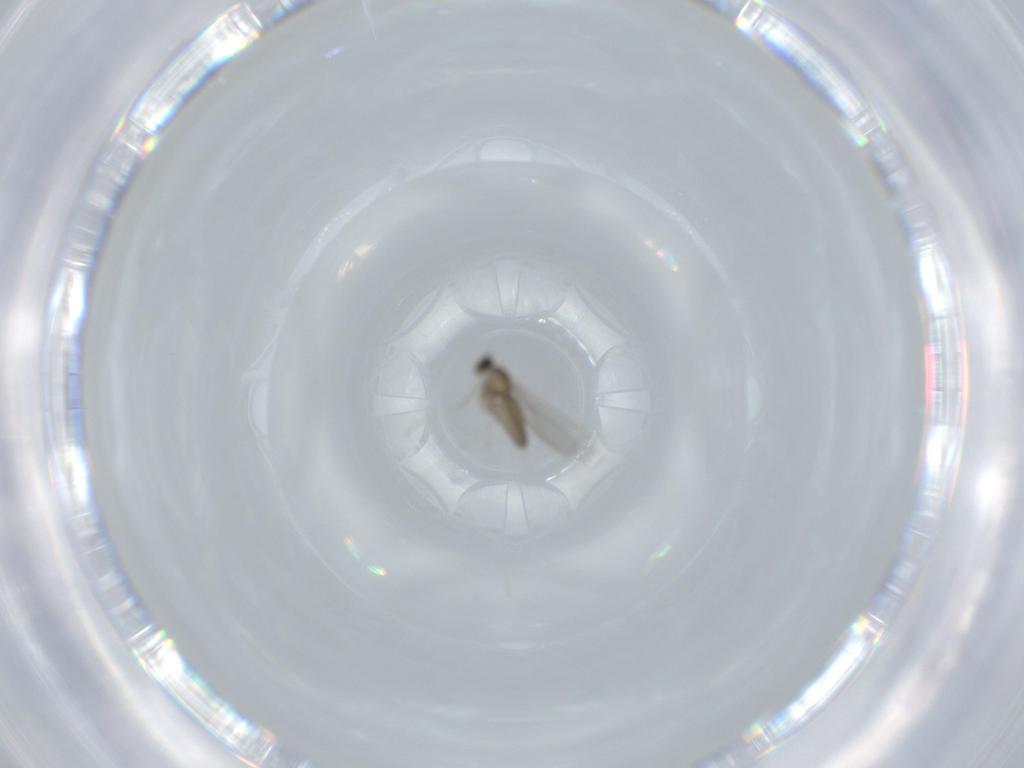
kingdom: Animalia
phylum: Arthropoda
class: Insecta
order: Diptera
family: Cecidomyiidae
